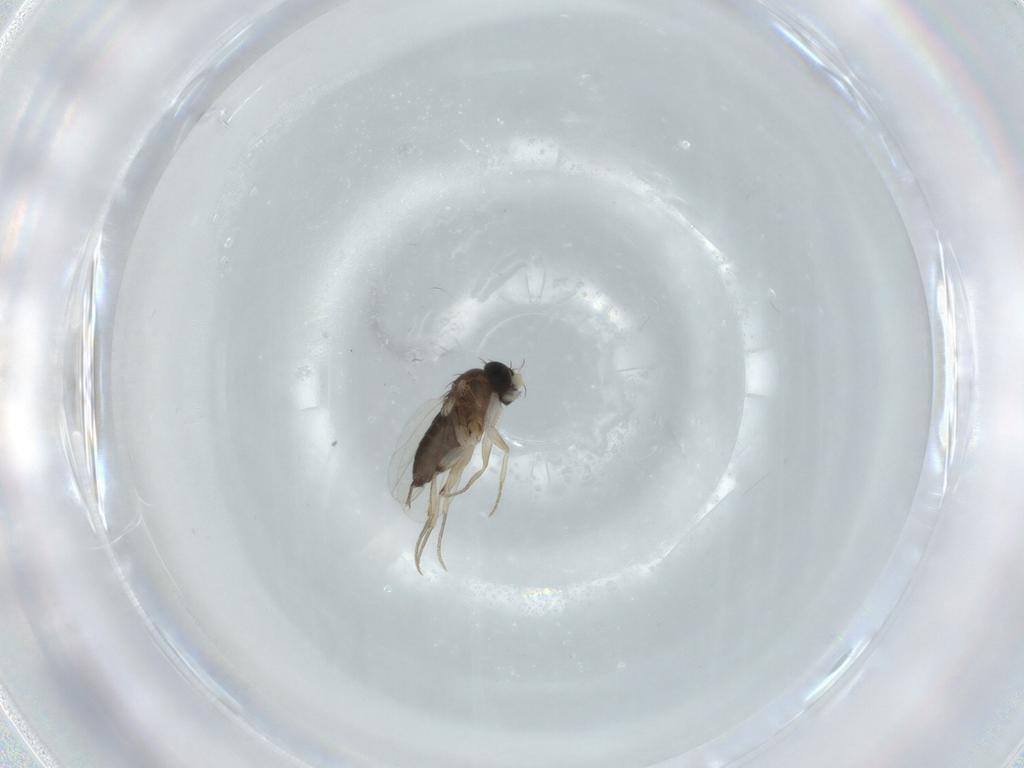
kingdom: Animalia
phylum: Arthropoda
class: Insecta
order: Diptera
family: Phoridae
